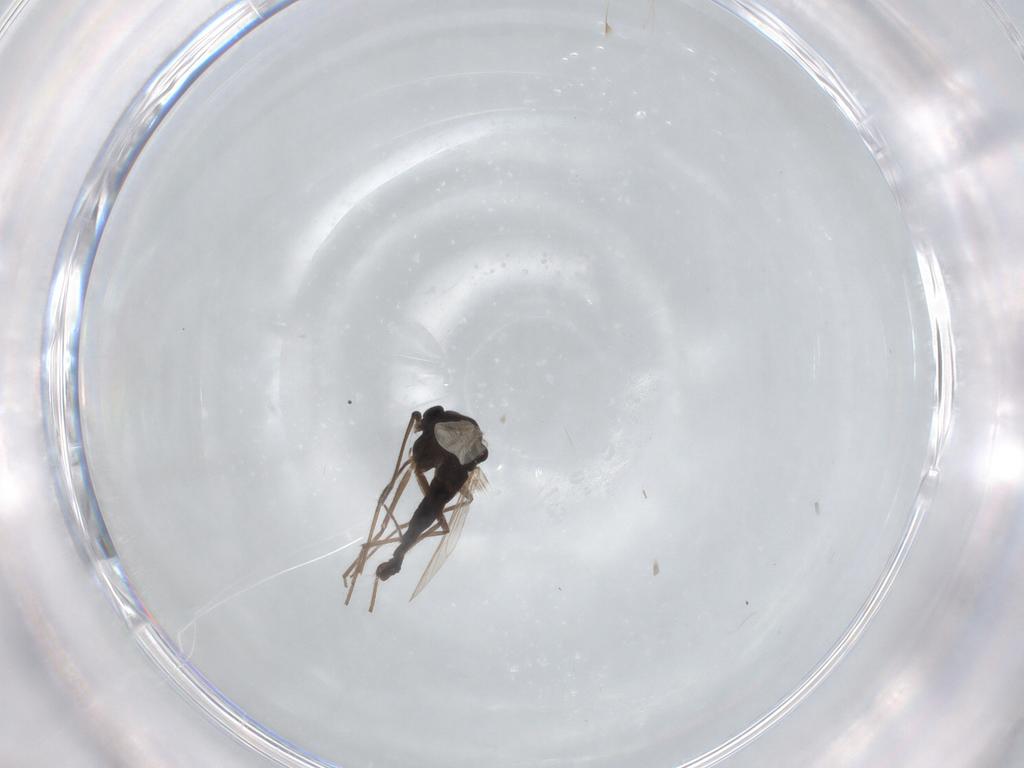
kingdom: Animalia
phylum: Arthropoda
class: Insecta
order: Diptera
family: Chironomidae
